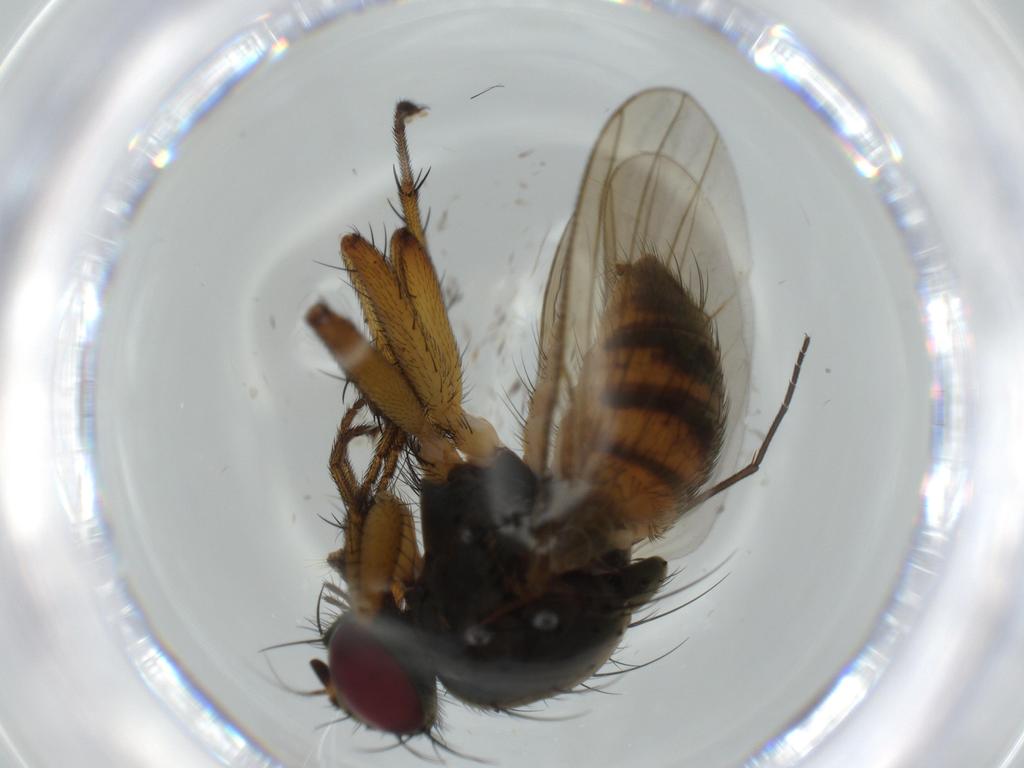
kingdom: Animalia
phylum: Arthropoda
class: Insecta
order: Diptera
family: Muscidae
